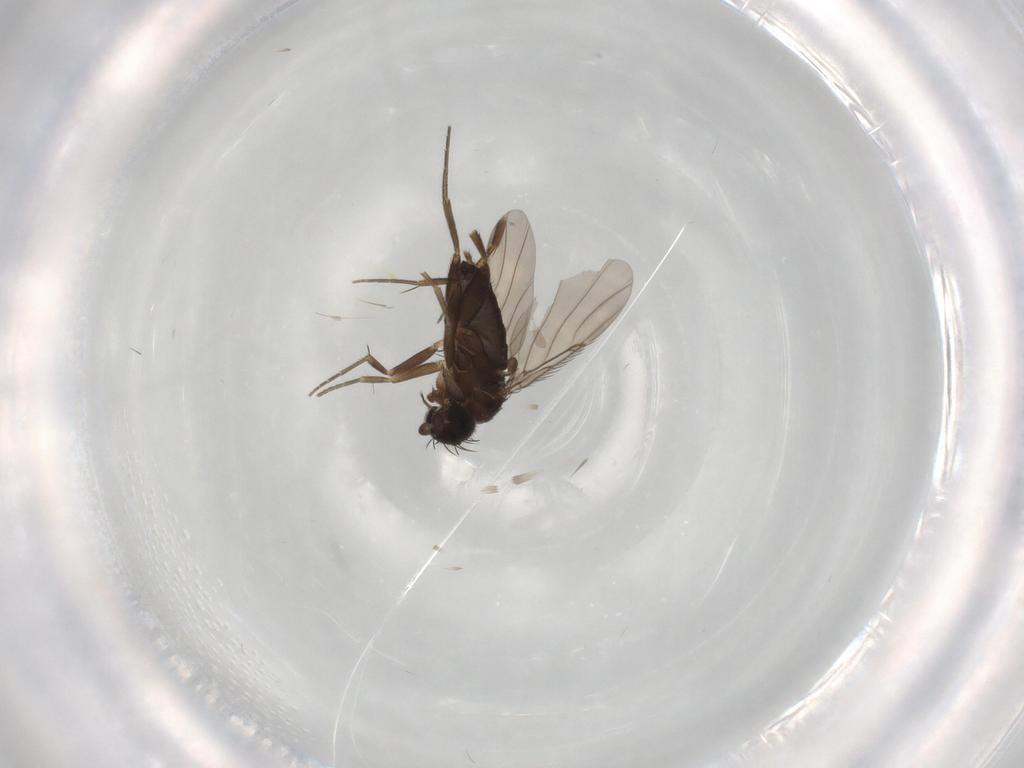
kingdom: Animalia
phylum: Arthropoda
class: Insecta
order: Diptera
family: Phoridae
